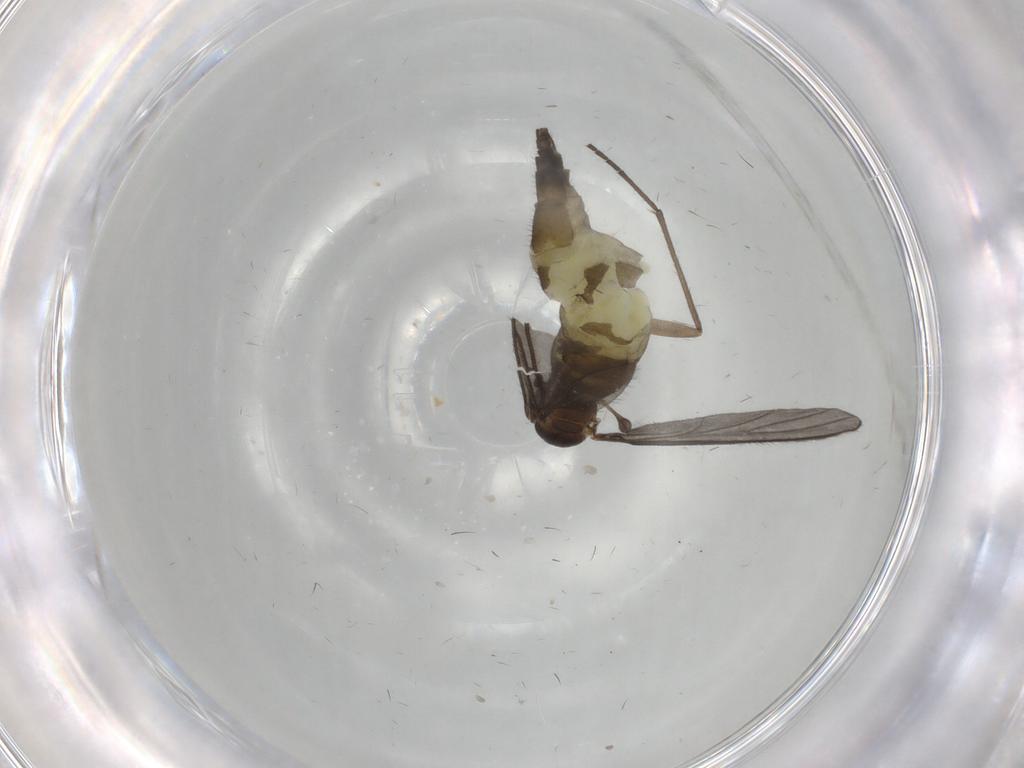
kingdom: Animalia
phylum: Arthropoda
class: Insecta
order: Diptera
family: Sciaridae
